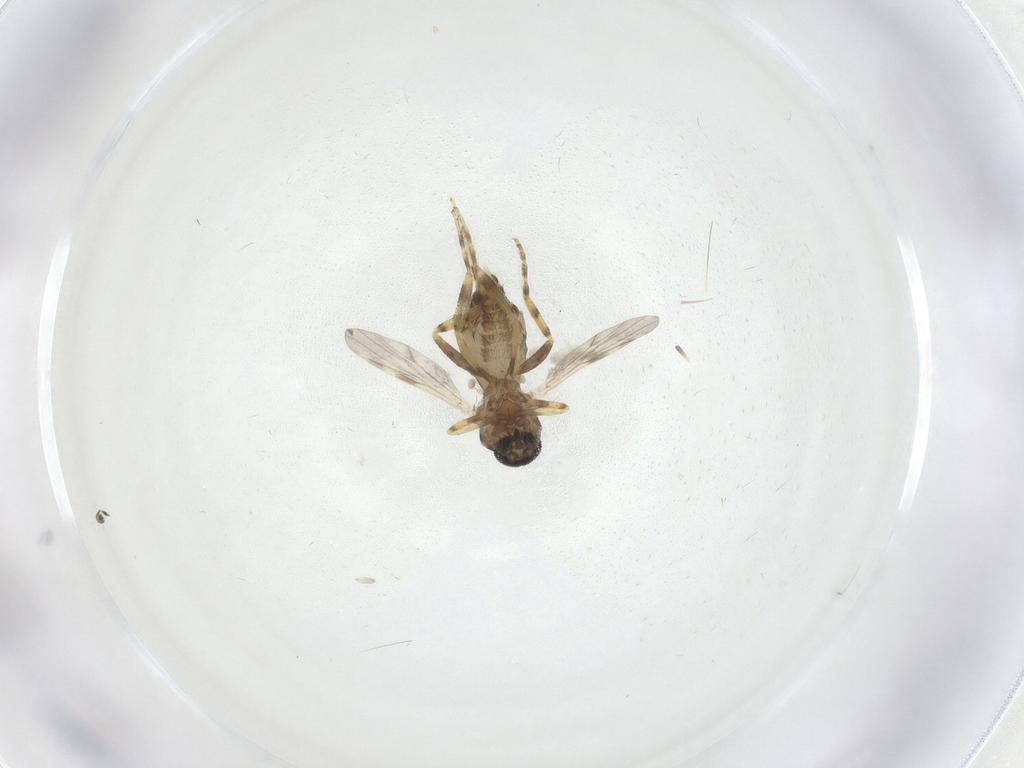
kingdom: Animalia
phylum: Arthropoda
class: Insecta
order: Diptera
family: Ceratopogonidae
